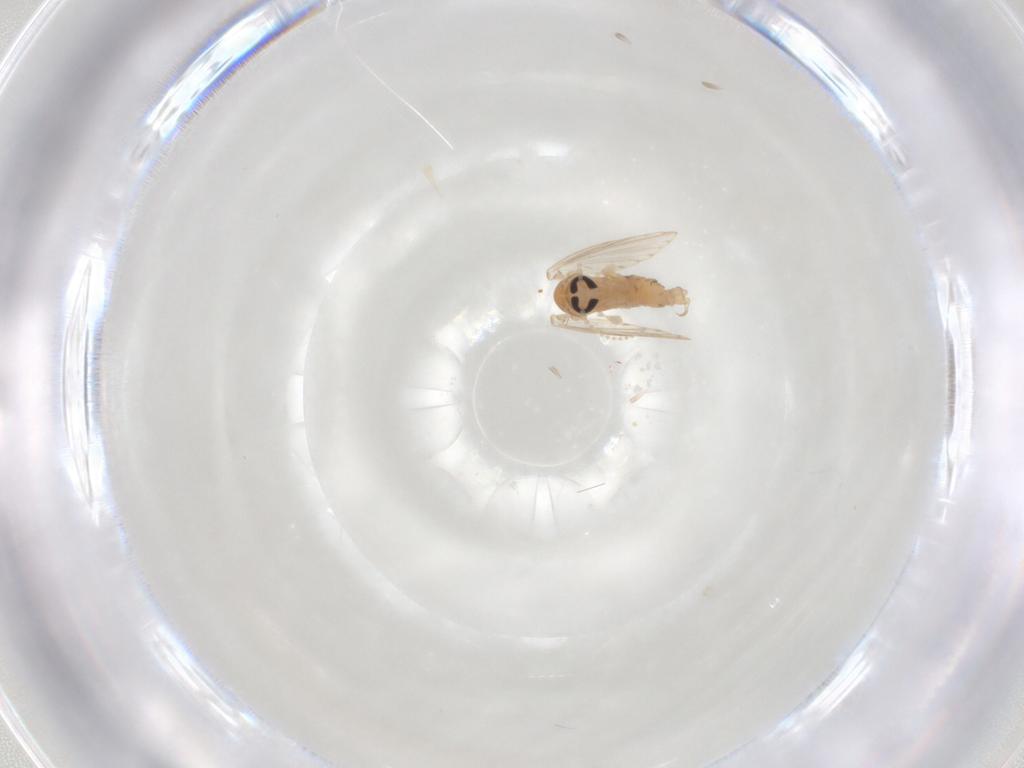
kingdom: Animalia
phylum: Arthropoda
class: Insecta
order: Diptera
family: Psychodidae
